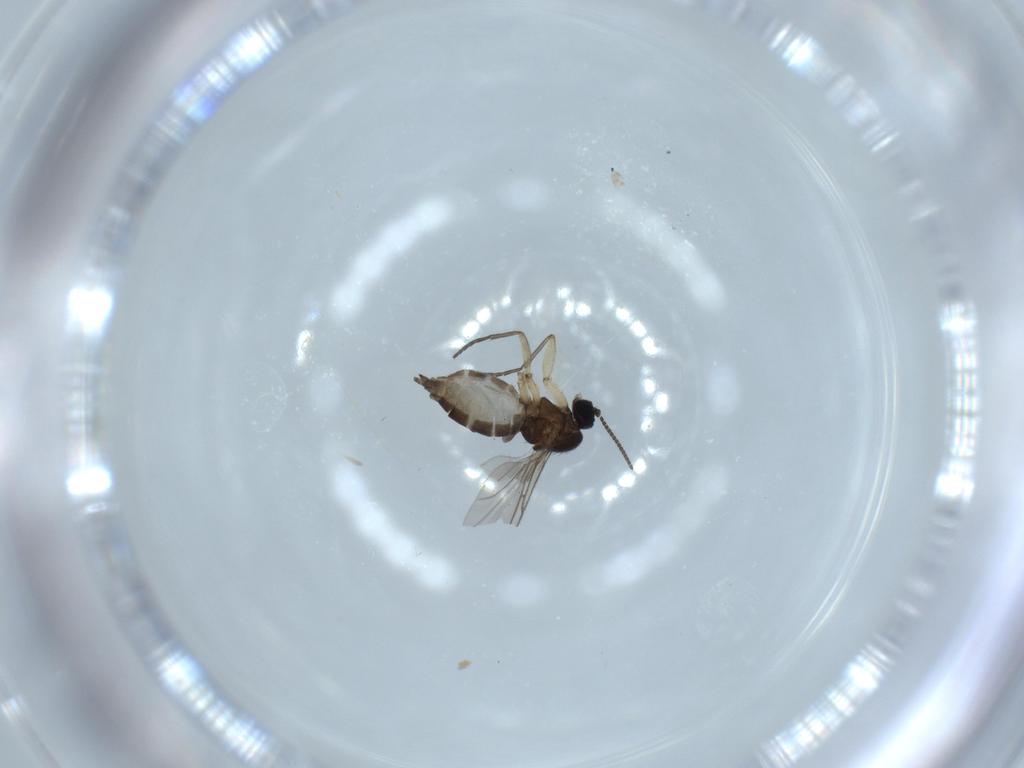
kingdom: Animalia
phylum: Arthropoda
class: Insecta
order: Diptera
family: Sciaridae
